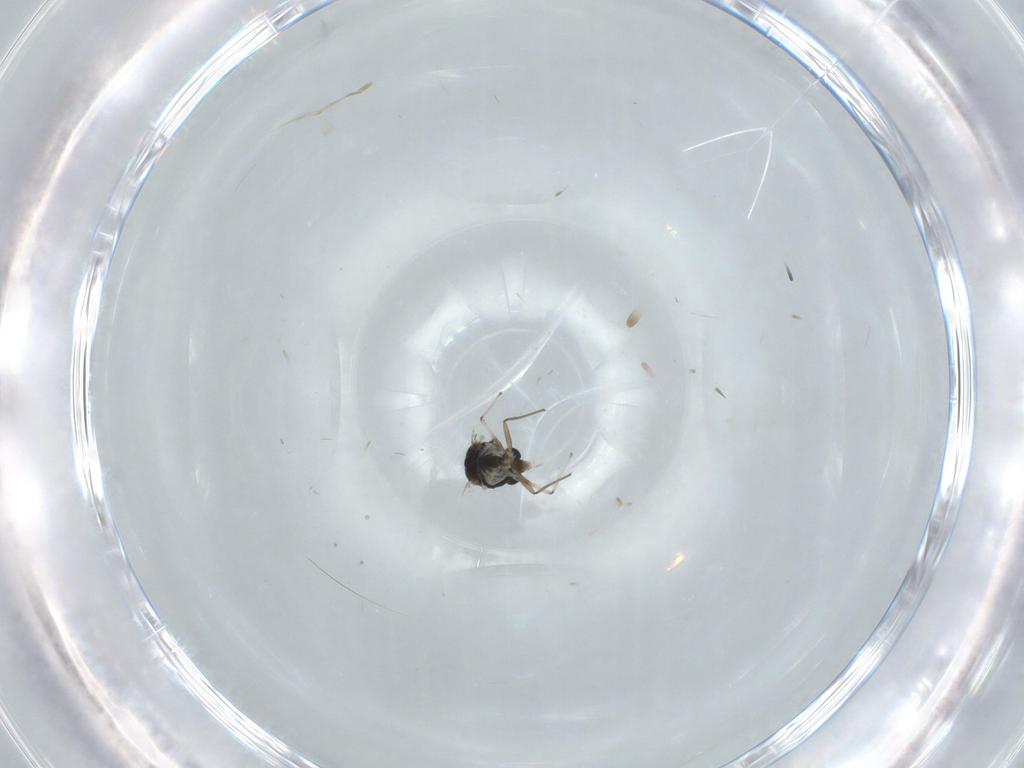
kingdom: Animalia
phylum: Arthropoda
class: Insecta
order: Diptera
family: Chironomidae
